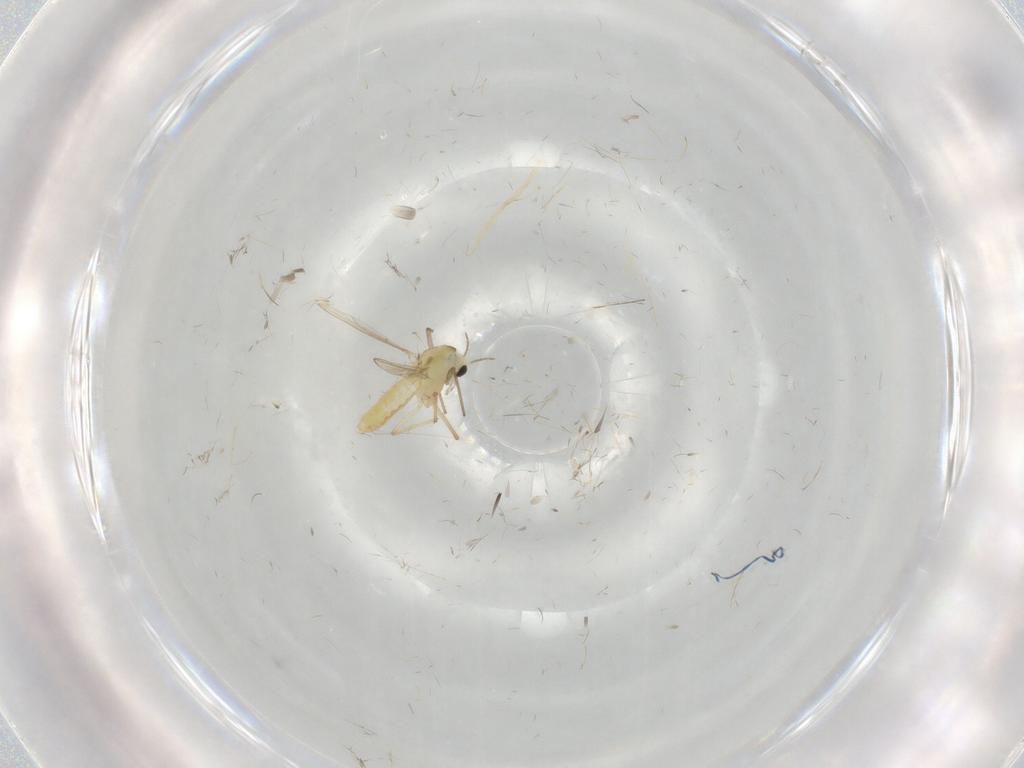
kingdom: Animalia
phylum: Arthropoda
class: Insecta
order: Diptera
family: Chironomidae
